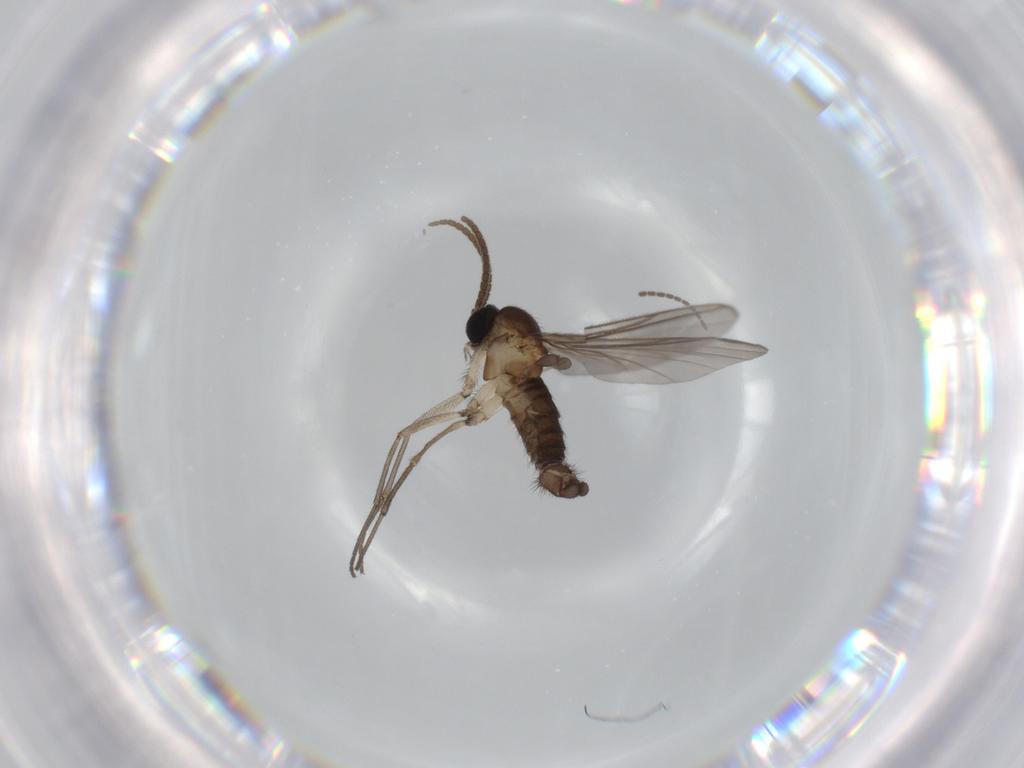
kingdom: Animalia
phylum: Arthropoda
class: Insecta
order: Diptera
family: Sciaridae
